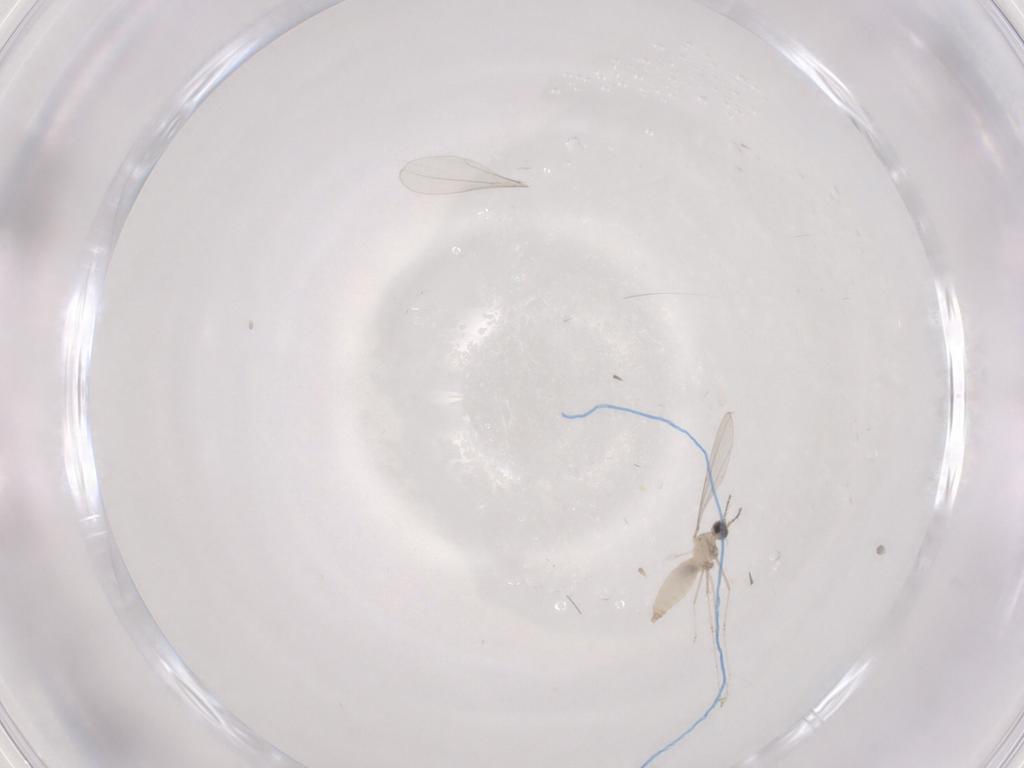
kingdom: Animalia
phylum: Arthropoda
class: Insecta
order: Diptera
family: Cecidomyiidae
